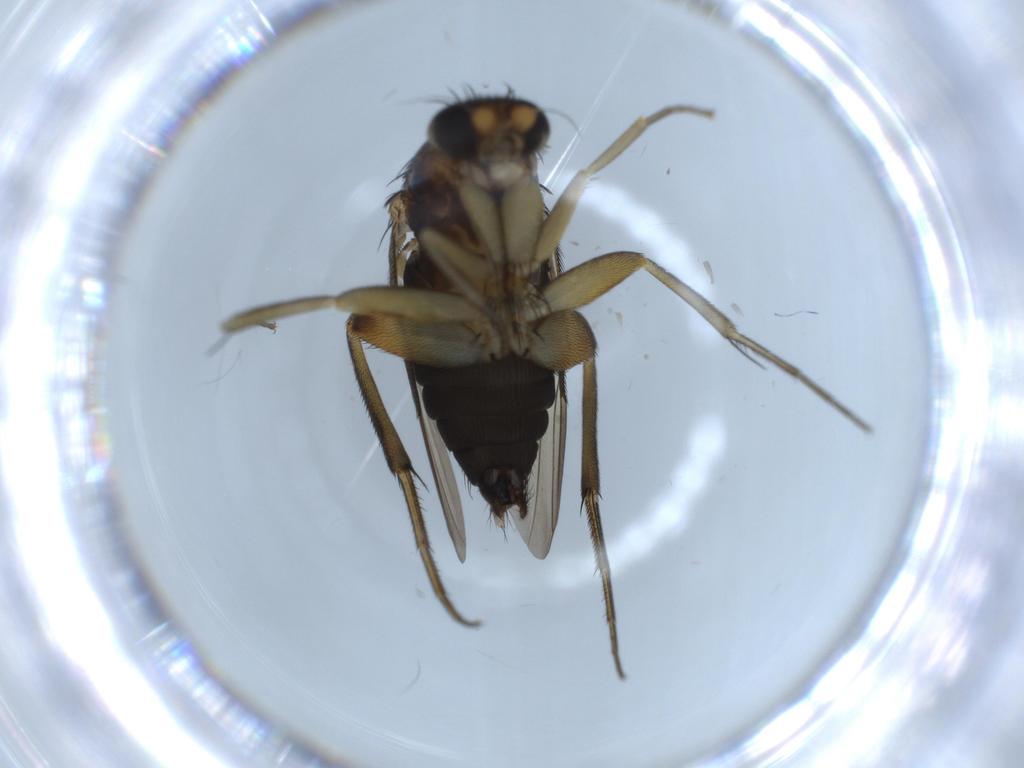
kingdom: Animalia
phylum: Arthropoda
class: Insecta
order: Diptera
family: Phoridae
